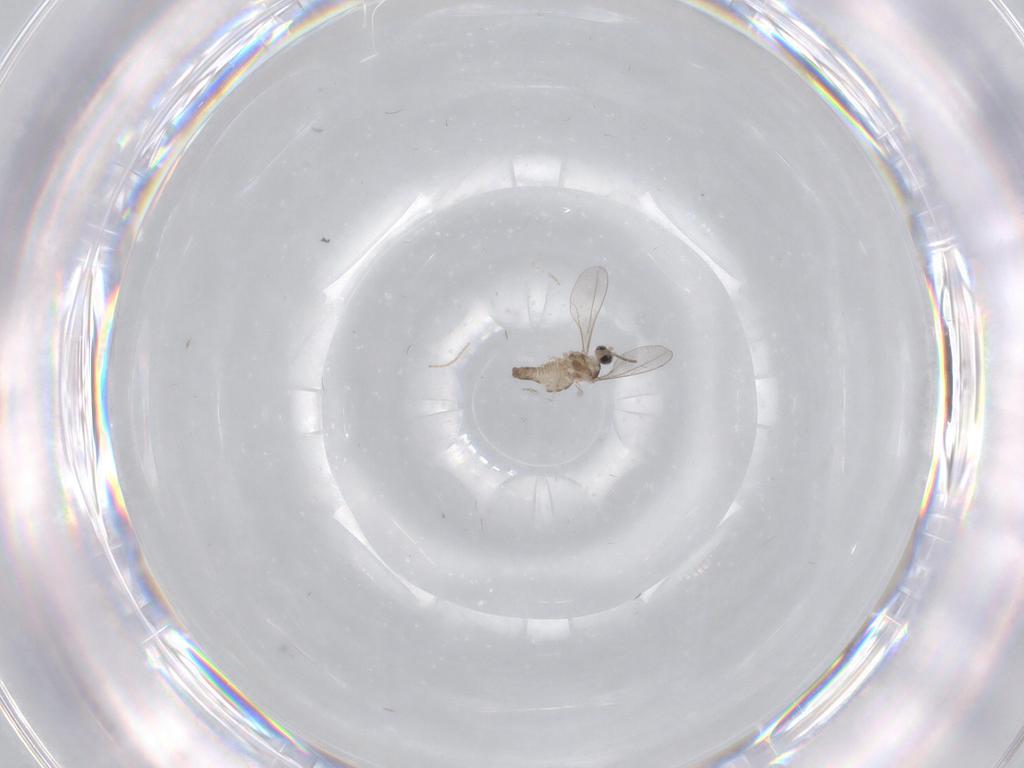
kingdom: Animalia
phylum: Arthropoda
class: Insecta
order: Diptera
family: Cecidomyiidae
